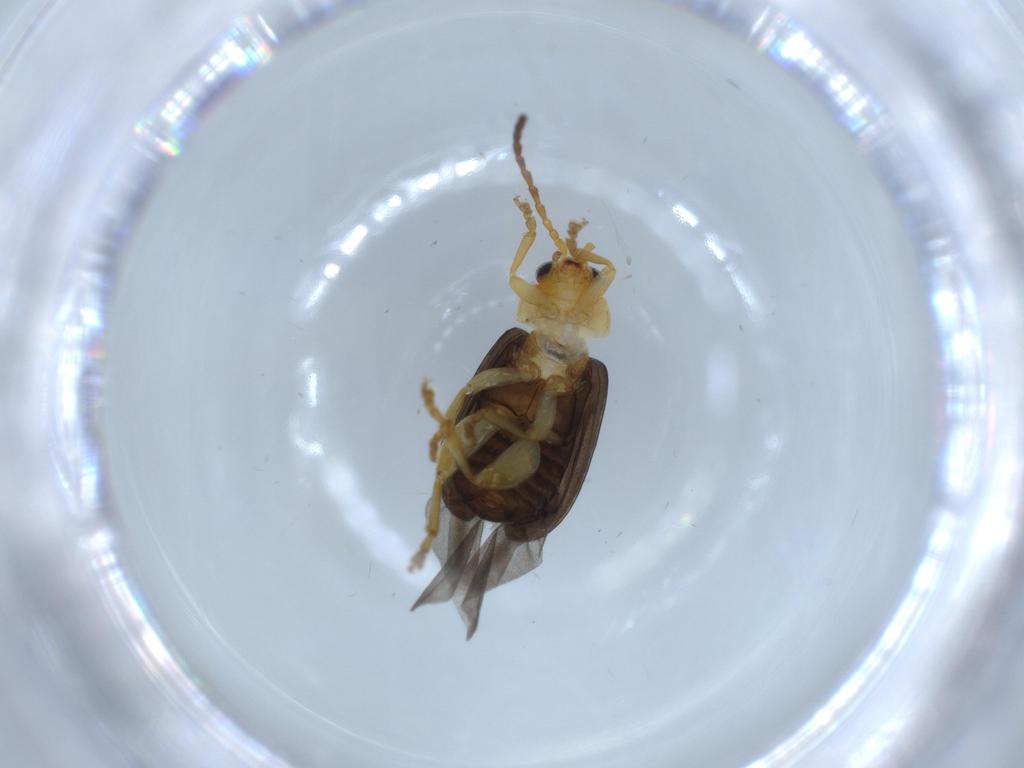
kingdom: Animalia
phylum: Arthropoda
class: Insecta
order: Coleoptera
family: Chrysomelidae
